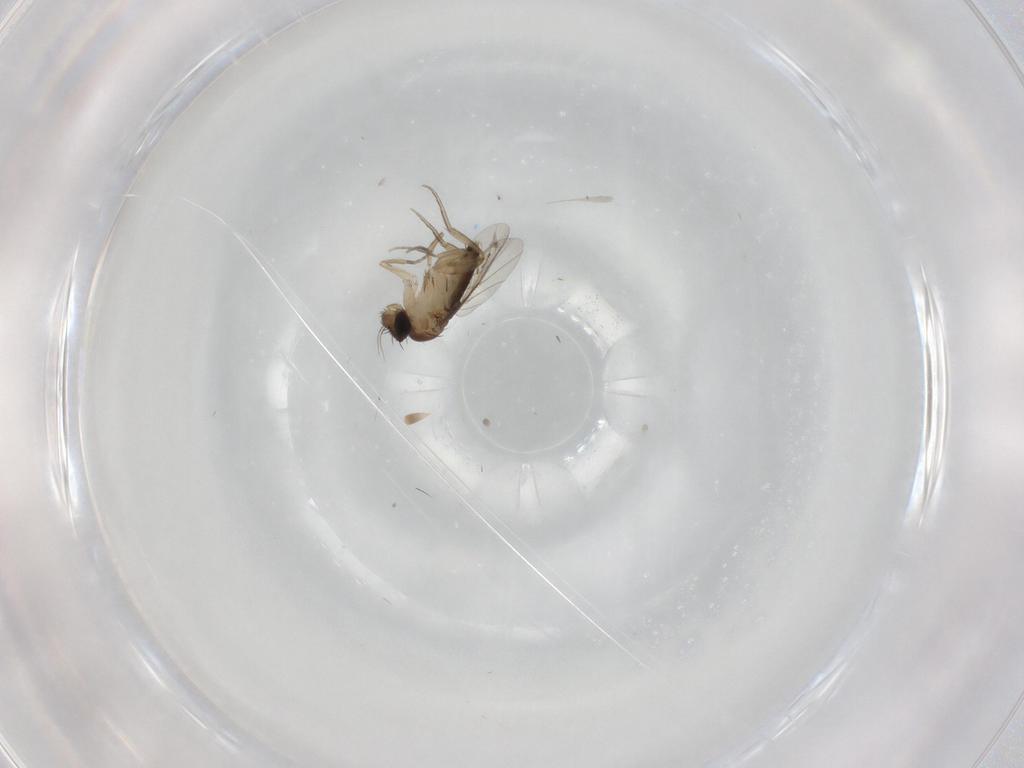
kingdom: Animalia
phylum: Arthropoda
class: Insecta
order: Diptera
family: Phoridae
